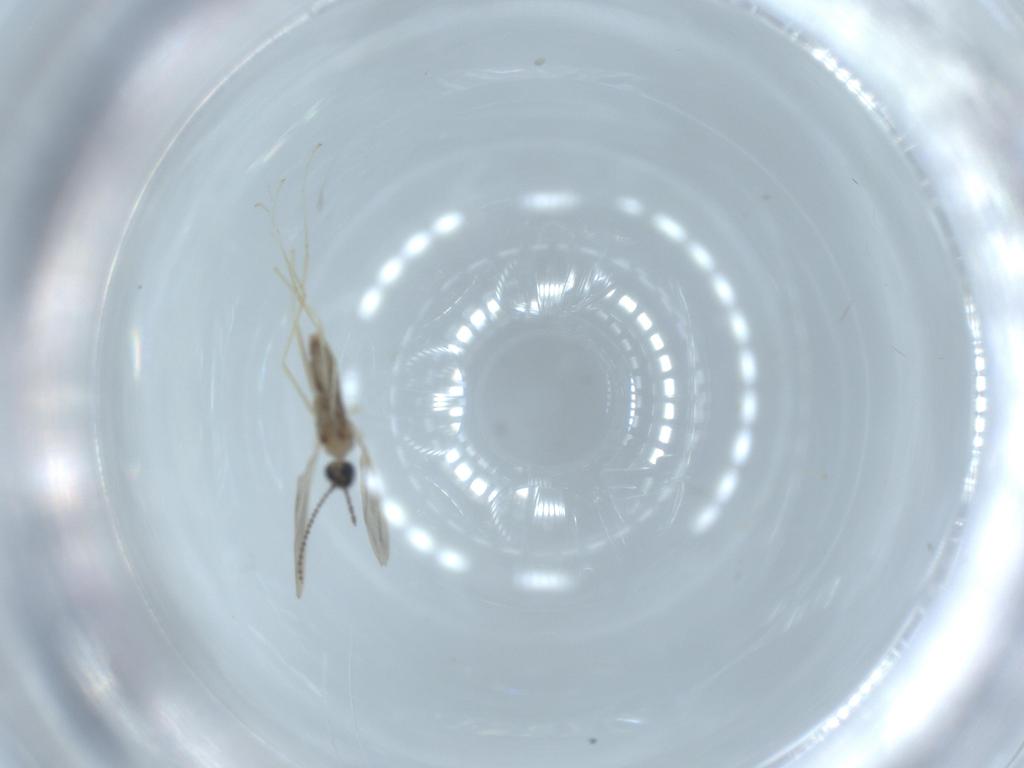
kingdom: Animalia
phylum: Arthropoda
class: Insecta
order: Diptera
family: Cecidomyiidae
